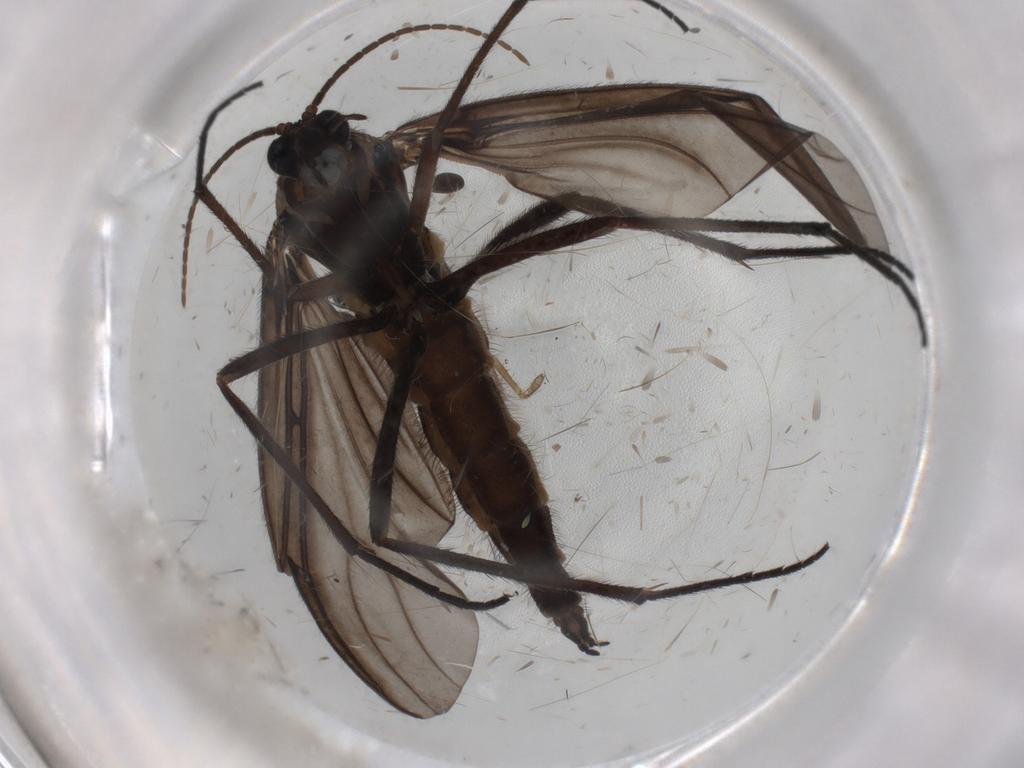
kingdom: Animalia
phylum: Arthropoda
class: Insecta
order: Diptera
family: Ceratopogonidae
